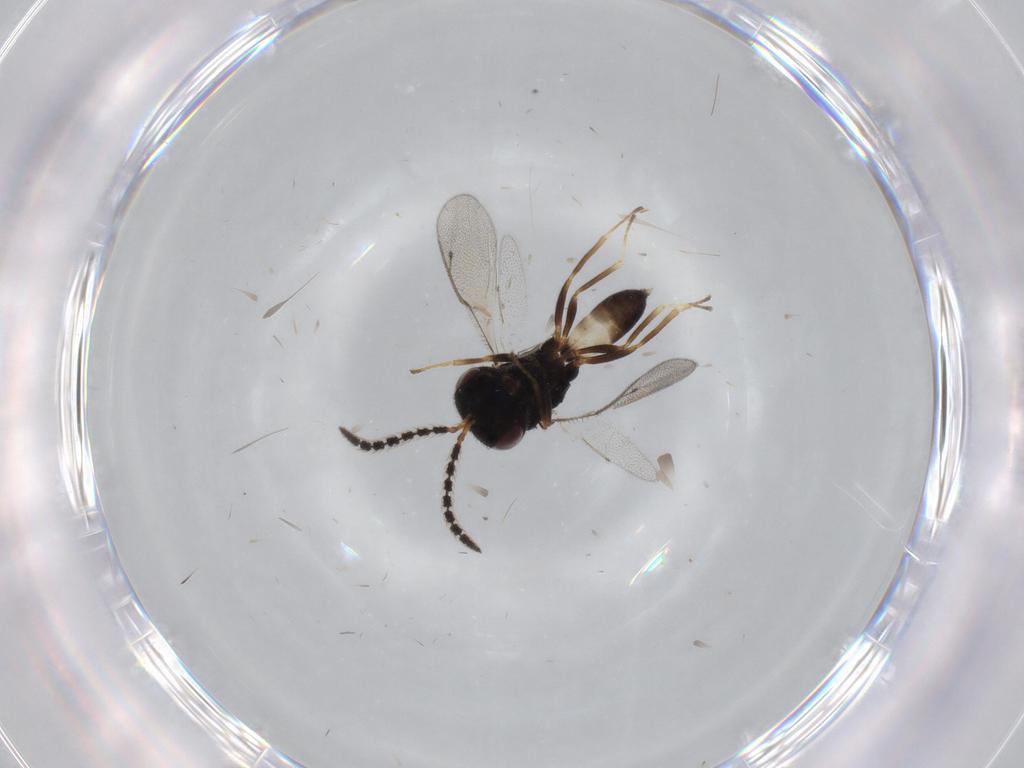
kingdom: Animalia
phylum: Arthropoda
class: Insecta
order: Hymenoptera
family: Pteromalidae
